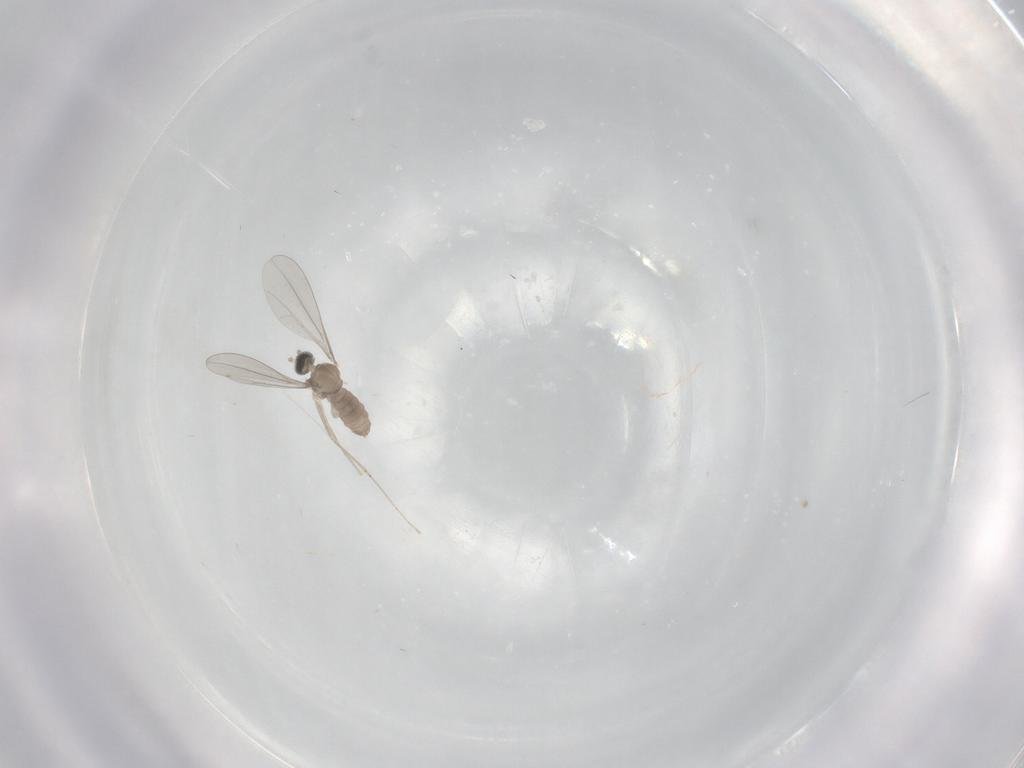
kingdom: Animalia
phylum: Arthropoda
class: Insecta
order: Diptera
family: Cecidomyiidae
